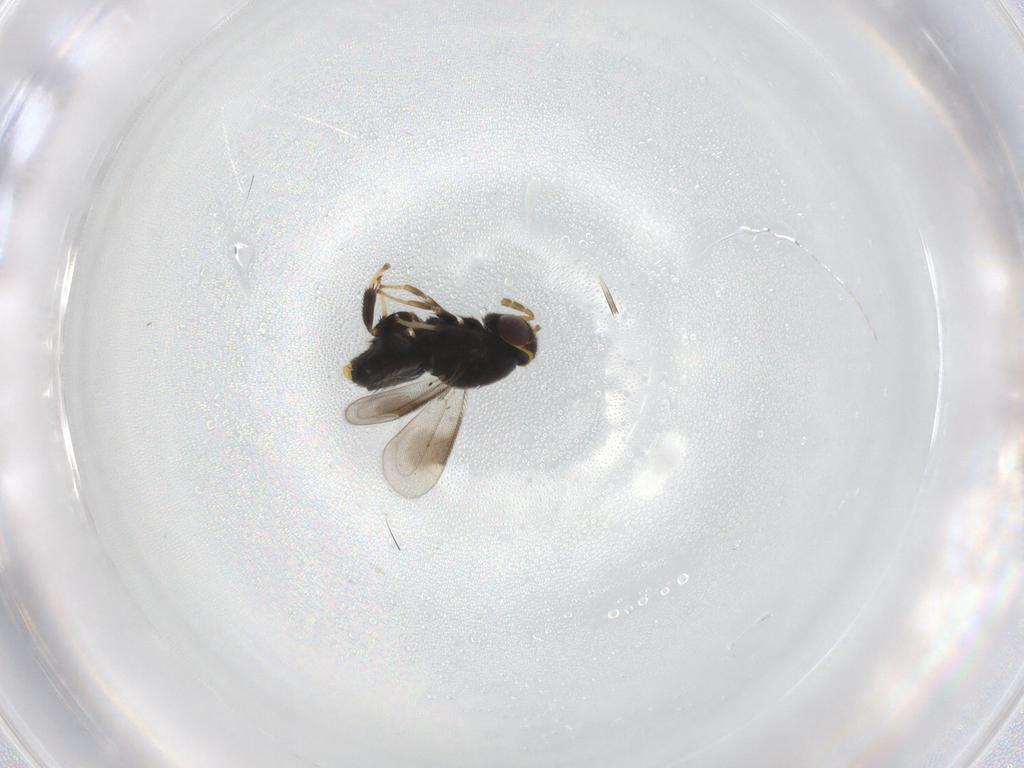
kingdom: Animalia
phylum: Arthropoda
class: Insecta
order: Hymenoptera
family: Aphelinidae
